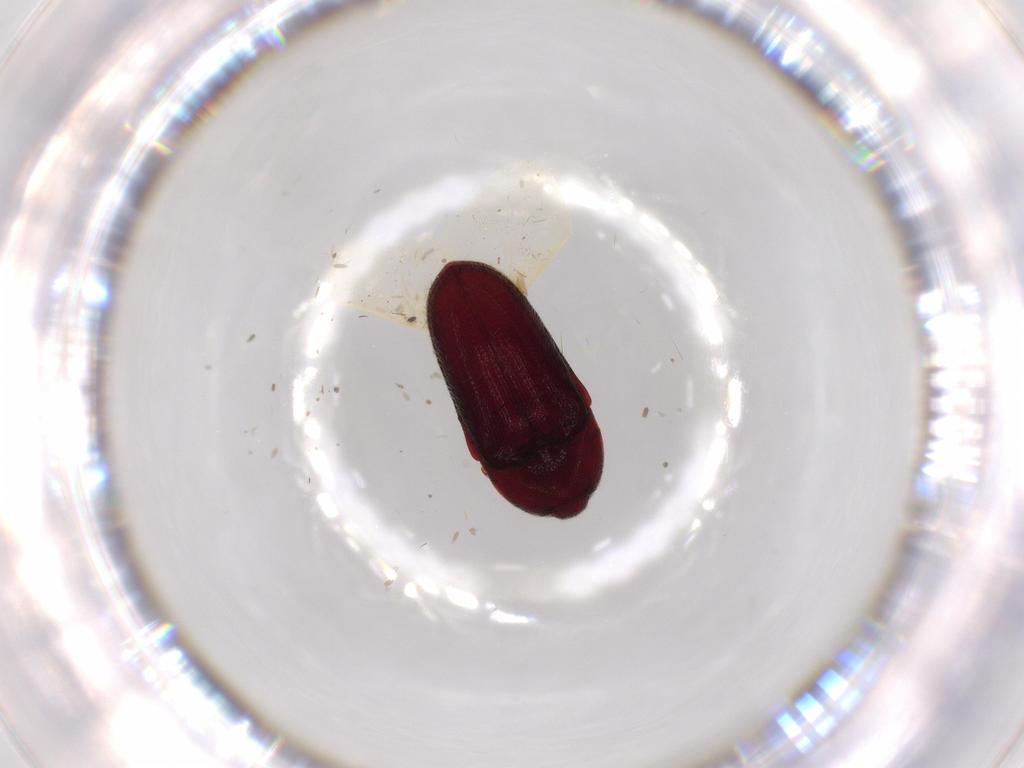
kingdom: Animalia
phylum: Arthropoda
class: Insecta
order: Coleoptera
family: Throscidae
